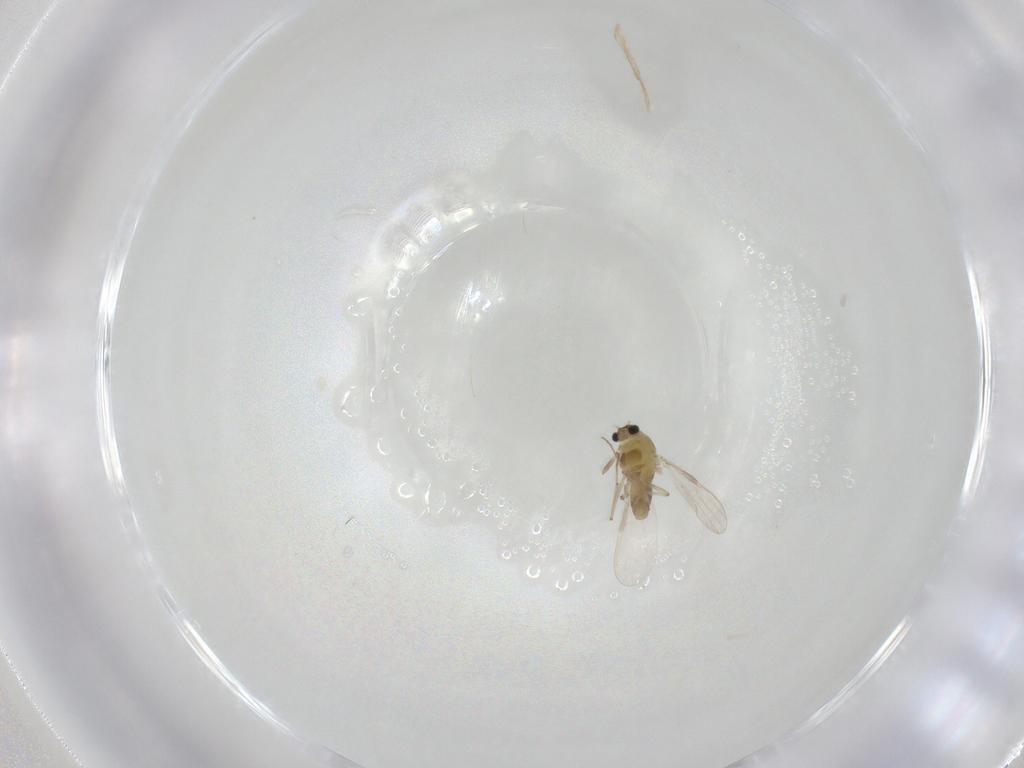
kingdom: Animalia
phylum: Arthropoda
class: Insecta
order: Diptera
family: Chironomidae
